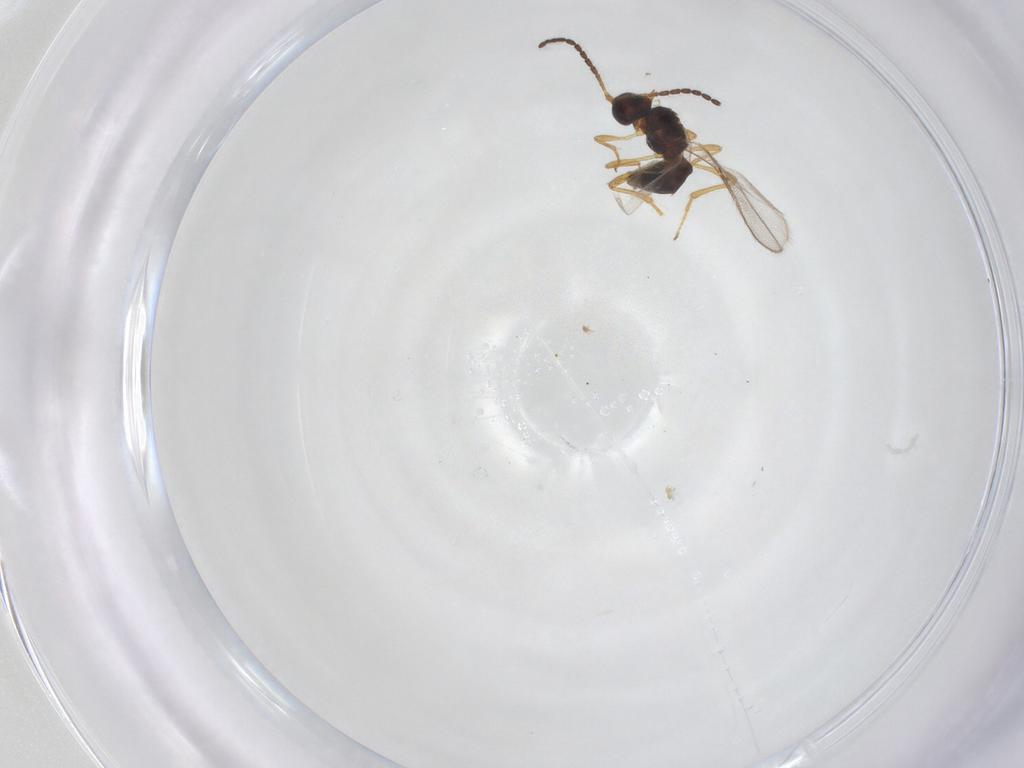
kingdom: Animalia
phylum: Arthropoda
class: Insecta
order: Hymenoptera
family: Braconidae
